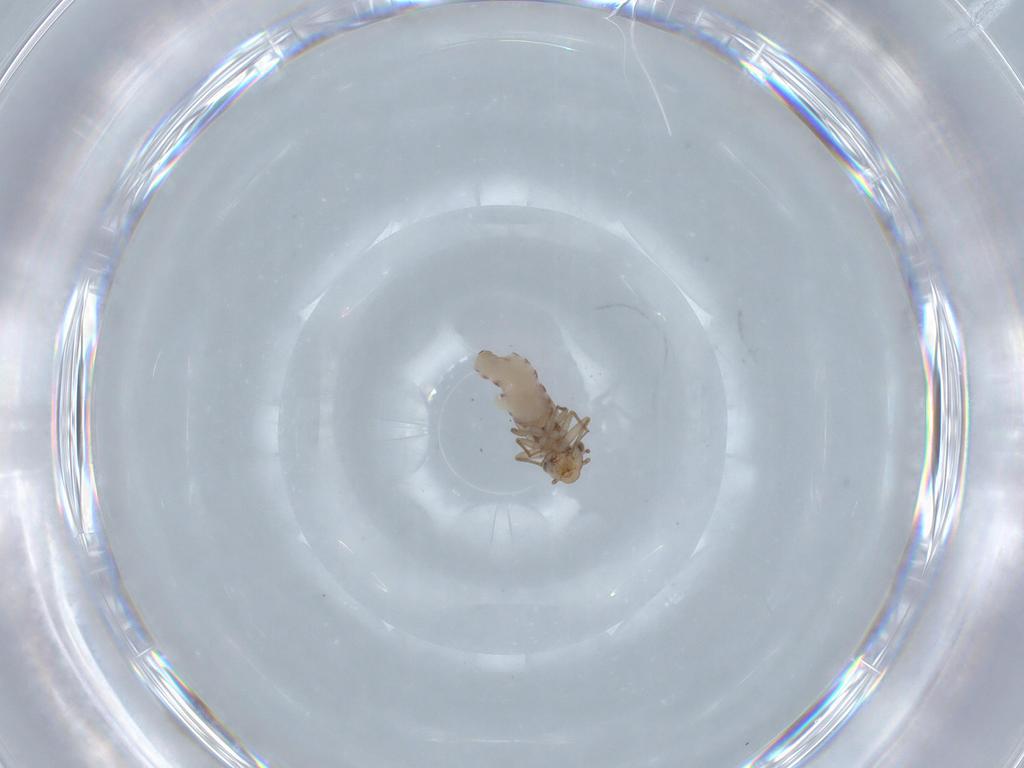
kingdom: Animalia
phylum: Arthropoda
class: Insecta
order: Psocodea
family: Lepidopsocidae
